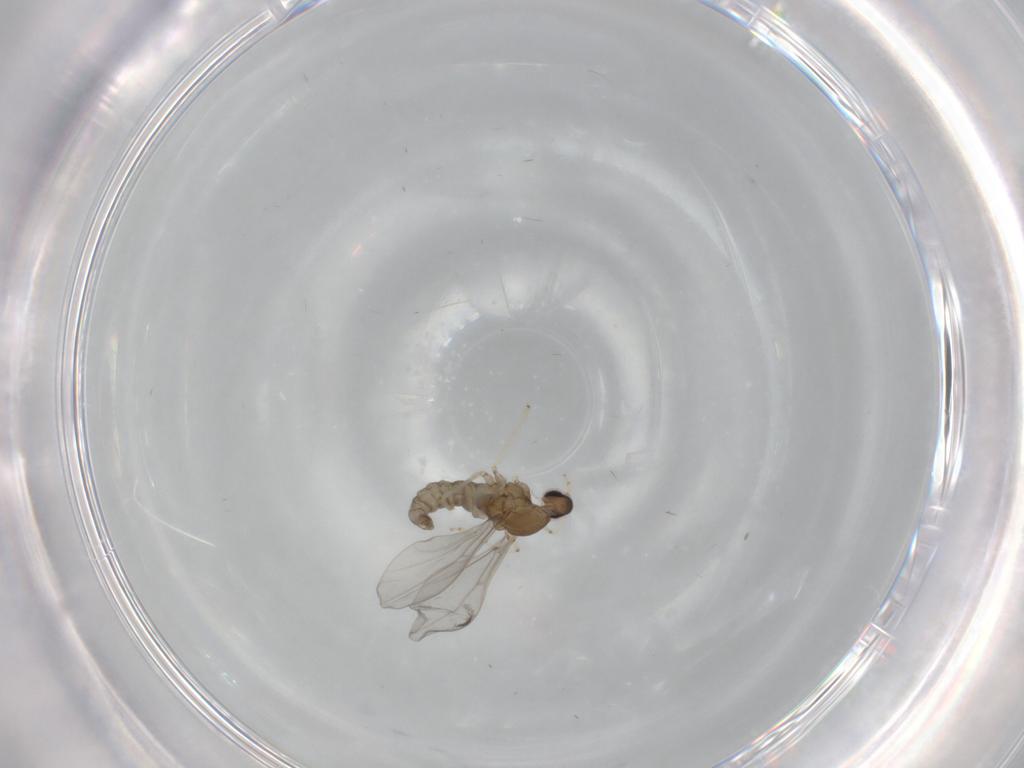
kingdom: Animalia
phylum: Arthropoda
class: Insecta
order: Diptera
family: Cecidomyiidae
